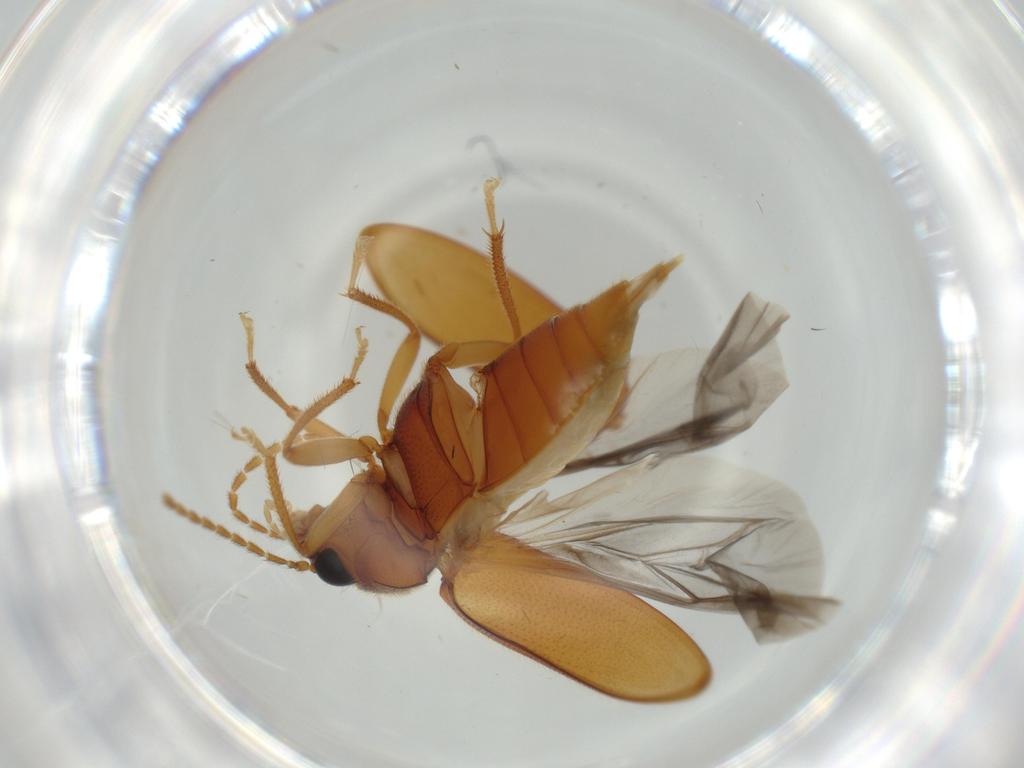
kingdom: Animalia
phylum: Arthropoda
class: Insecta
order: Coleoptera
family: Ptilodactylidae
